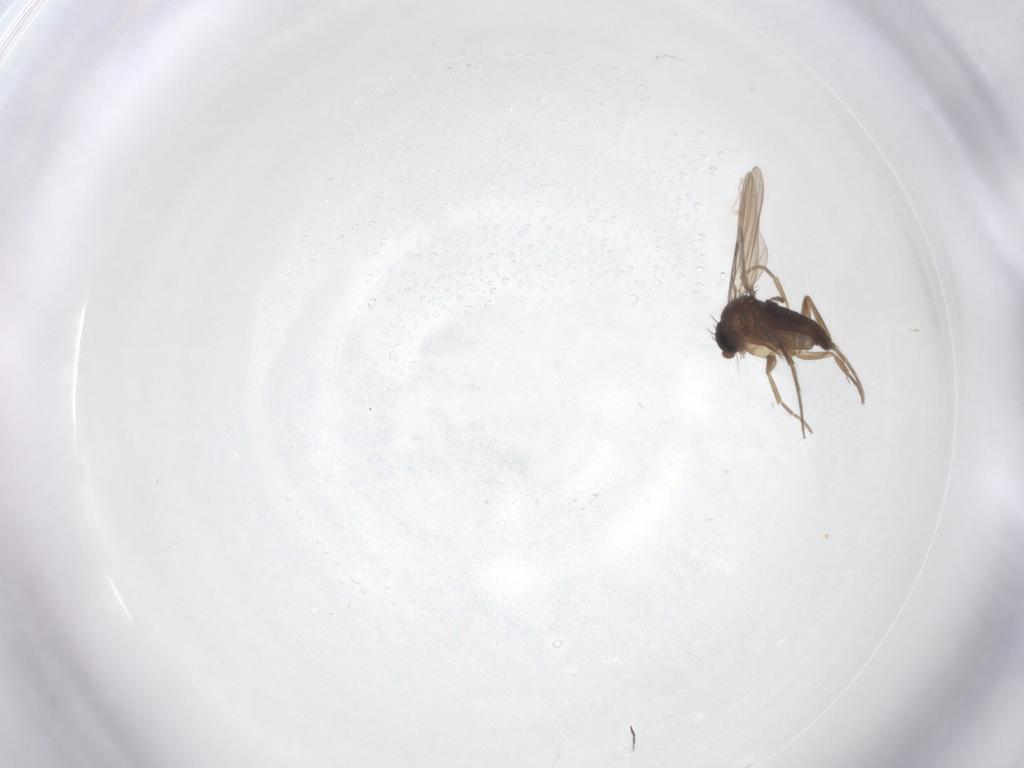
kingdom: Animalia
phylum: Arthropoda
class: Insecta
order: Diptera
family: Phoridae
